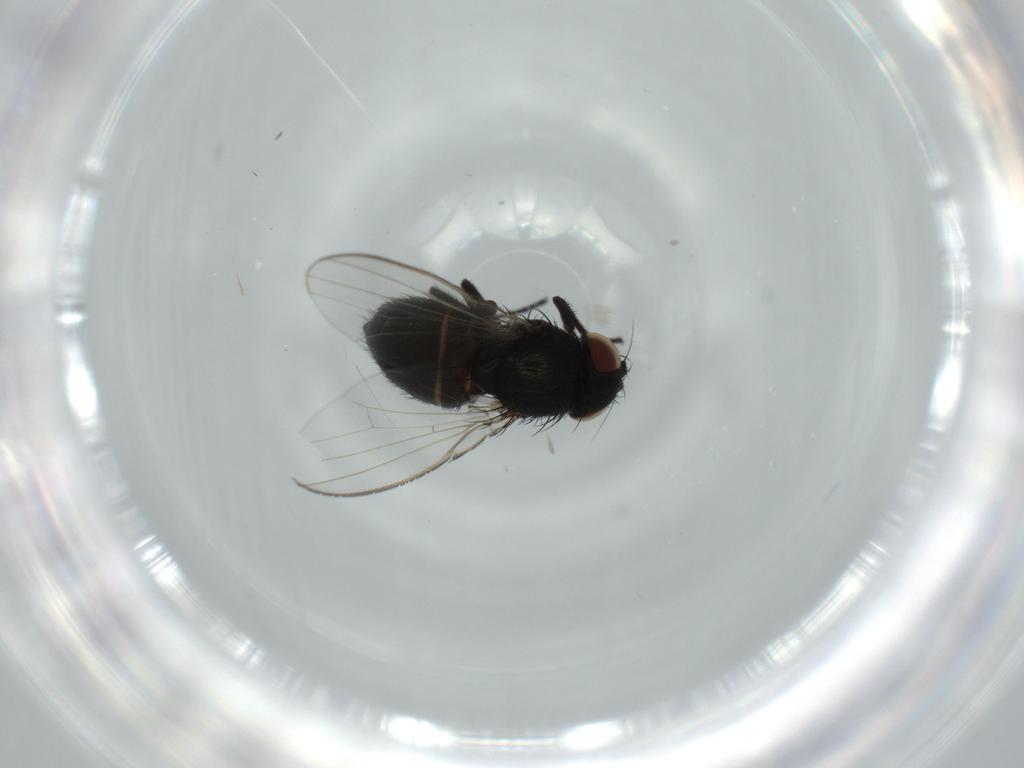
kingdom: Animalia
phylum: Arthropoda
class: Insecta
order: Diptera
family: Milichiidae
